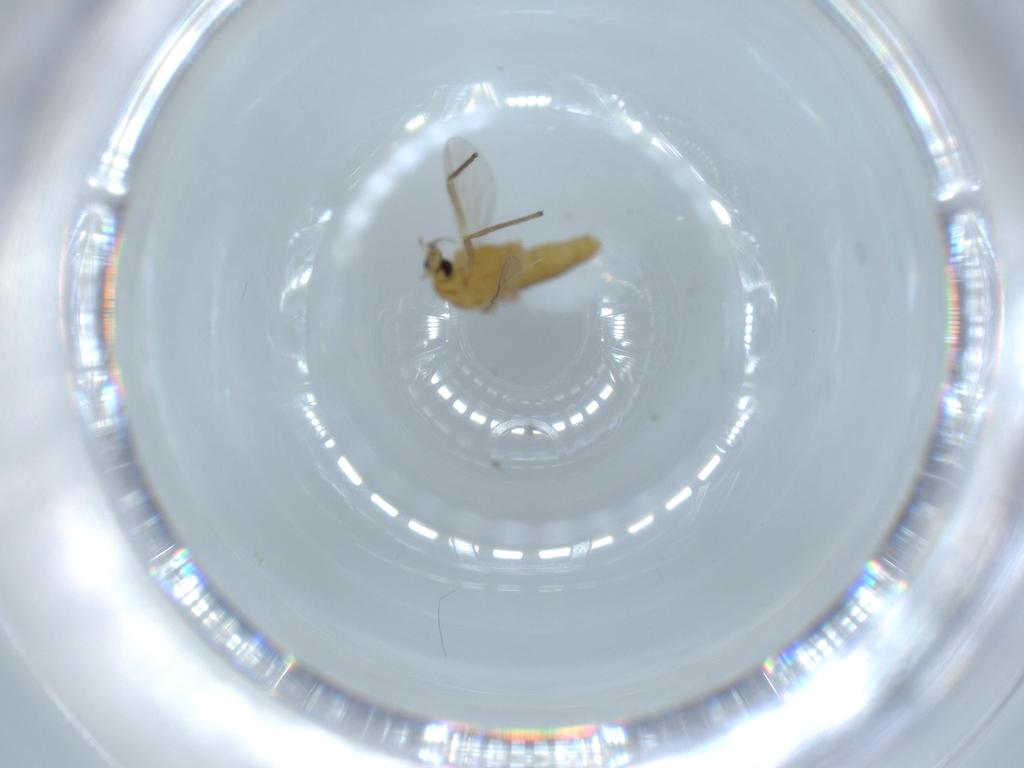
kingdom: Animalia
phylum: Arthropoda
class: Insecta
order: Diptera
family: Chironomidae
